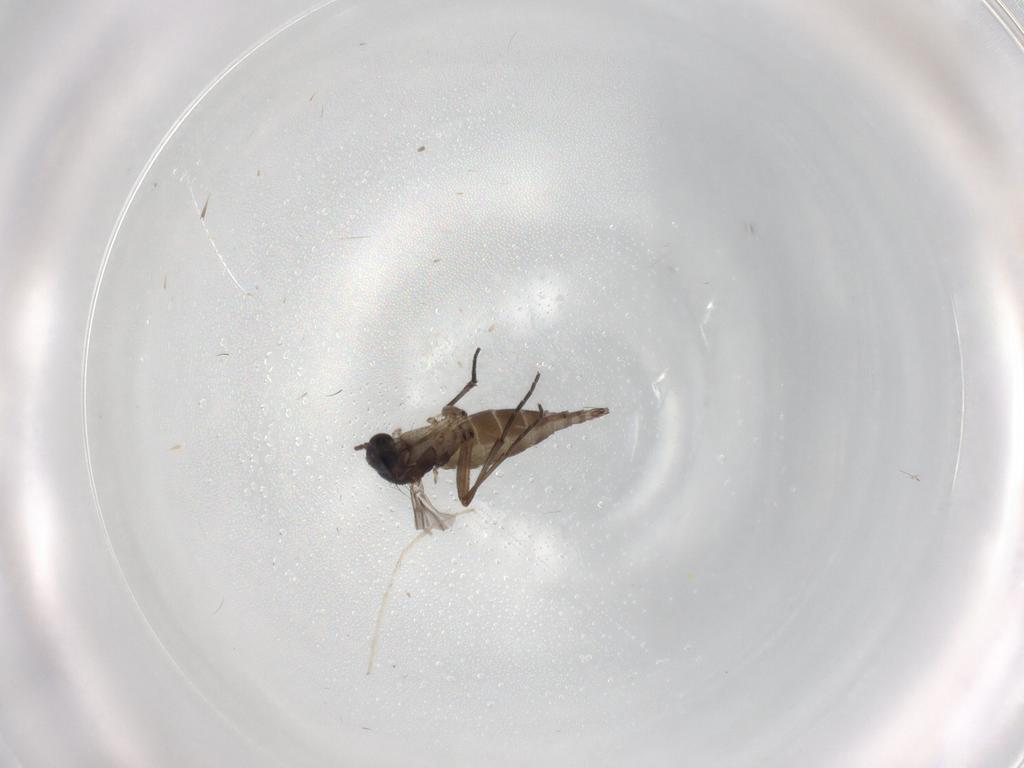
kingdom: Animalia
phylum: Arthropoda
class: Insecta
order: Diptera
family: Sciaridae
